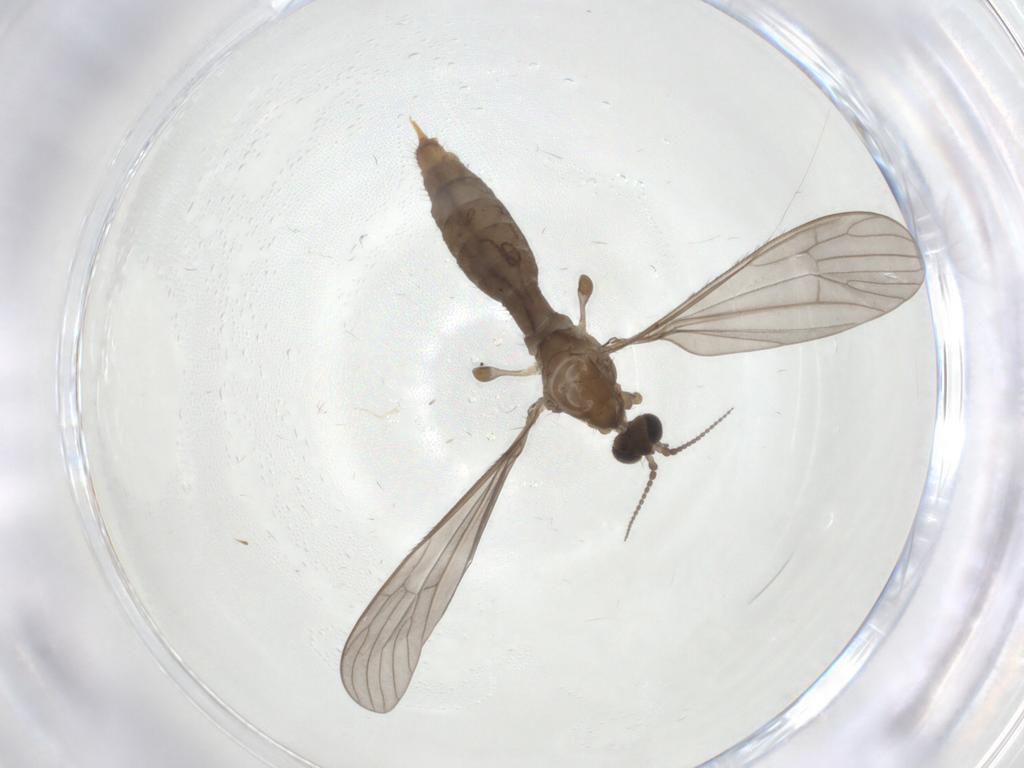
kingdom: Animalia
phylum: Arthropoda
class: Insecta
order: Diptera
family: Limoniidae
